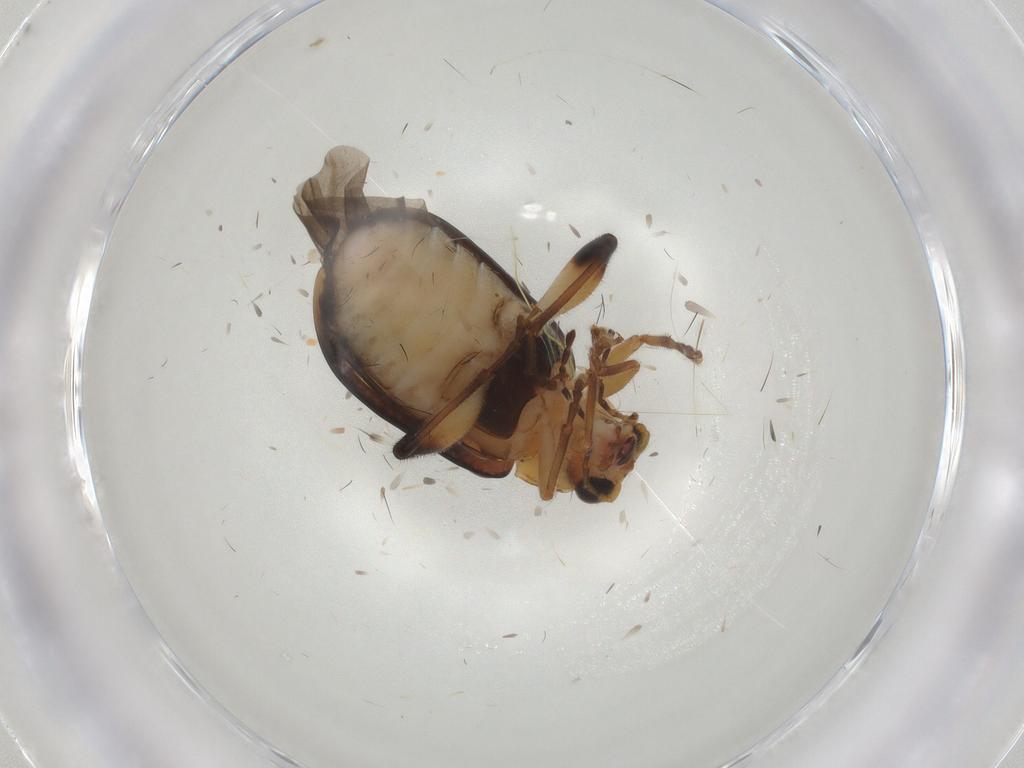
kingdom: Animalia
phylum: Arthropoda
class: Insecta
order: Coleoptera
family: Chrysomelidae
